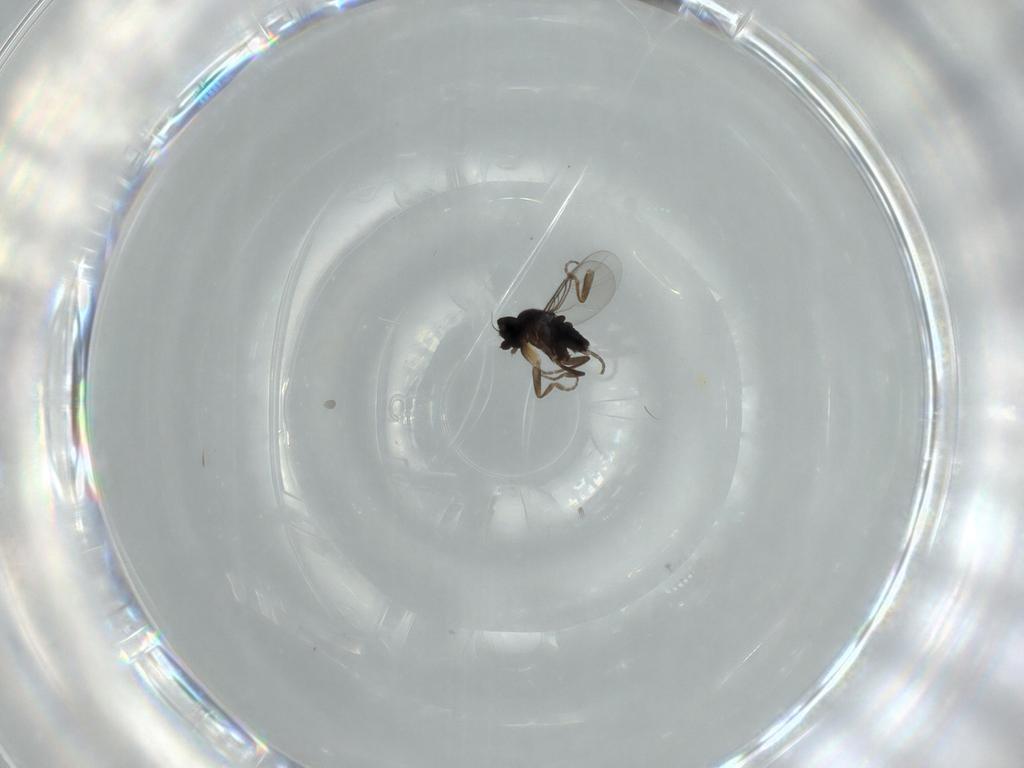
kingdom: Animalia
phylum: Arthropoda
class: Insecta
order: Diptera
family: Phoridae
